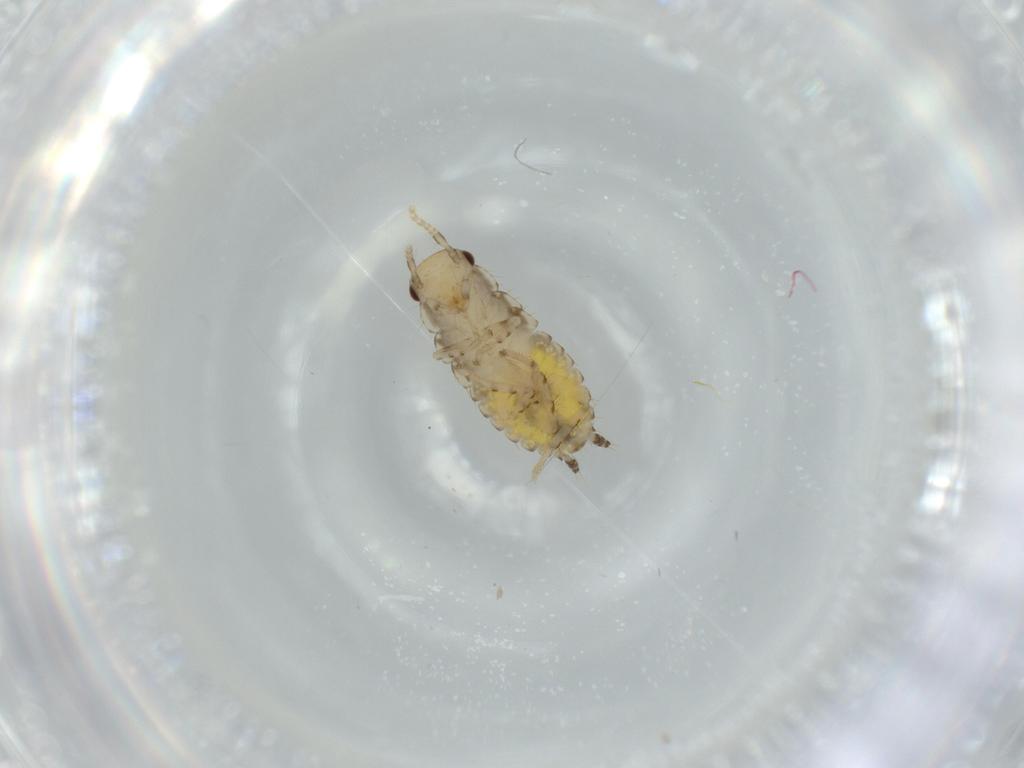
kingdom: Animalia
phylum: Arthropoda
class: Insecta
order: Blattodea
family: Ectobiidae
